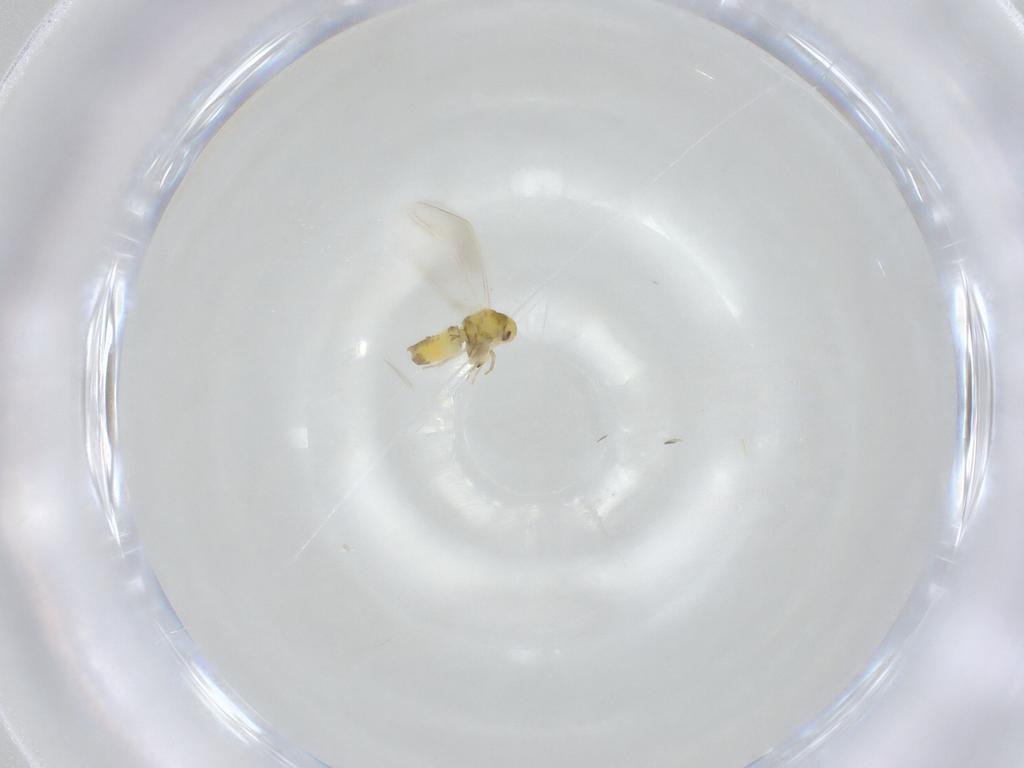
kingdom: Animalia
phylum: Arthropoda
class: Insecta
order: Hemiptera
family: Aleyrodidae
